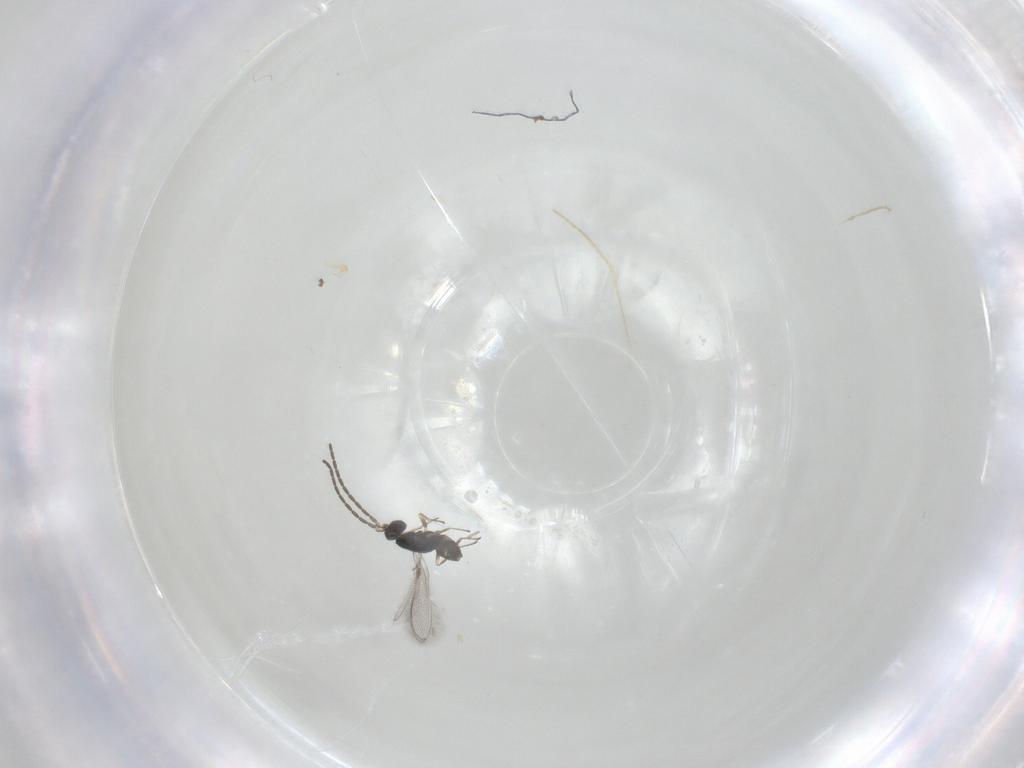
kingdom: Animalia
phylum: Arthropoda
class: Insecta
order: Hymenoptera
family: Mymaridae
